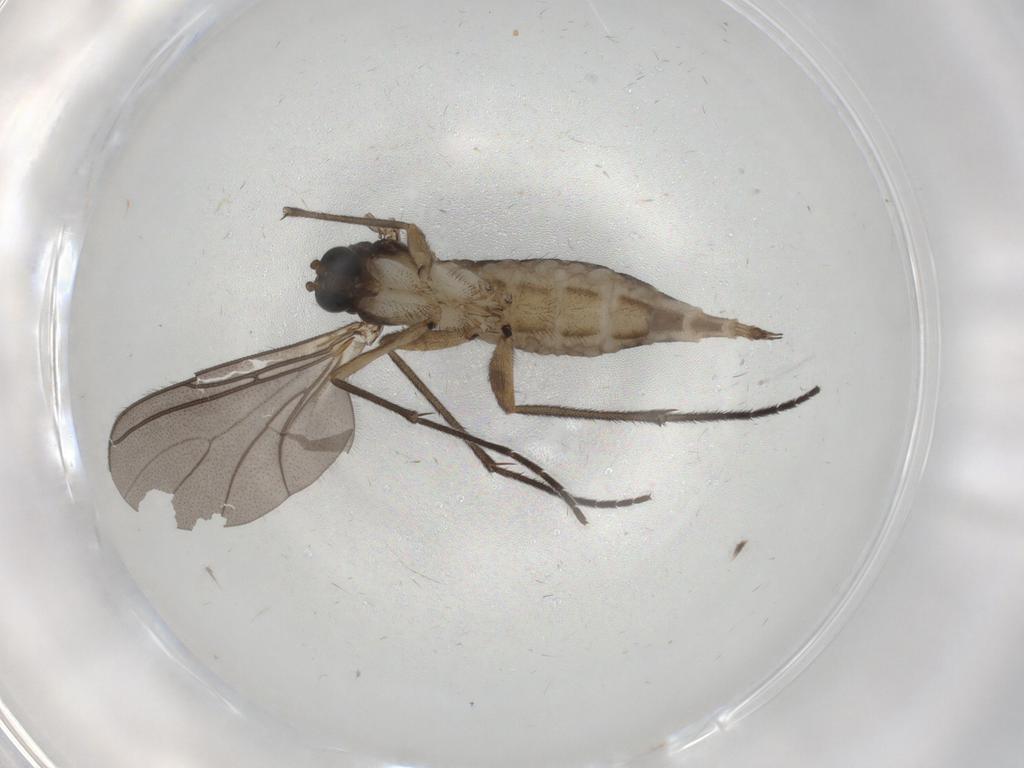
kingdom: Animalia
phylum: Arthropoda
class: Insecta
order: Diptera
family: Sciaridae
